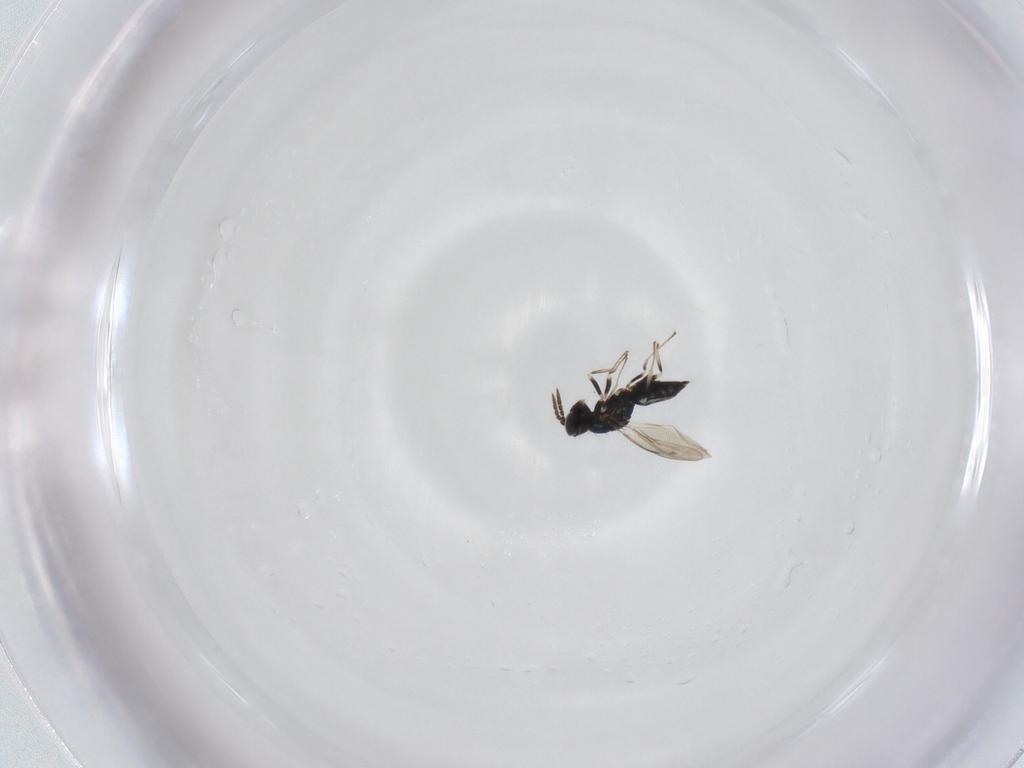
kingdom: Animalia
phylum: Arthropoda
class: Insecta
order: Hymenoptera
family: Eulophidae
